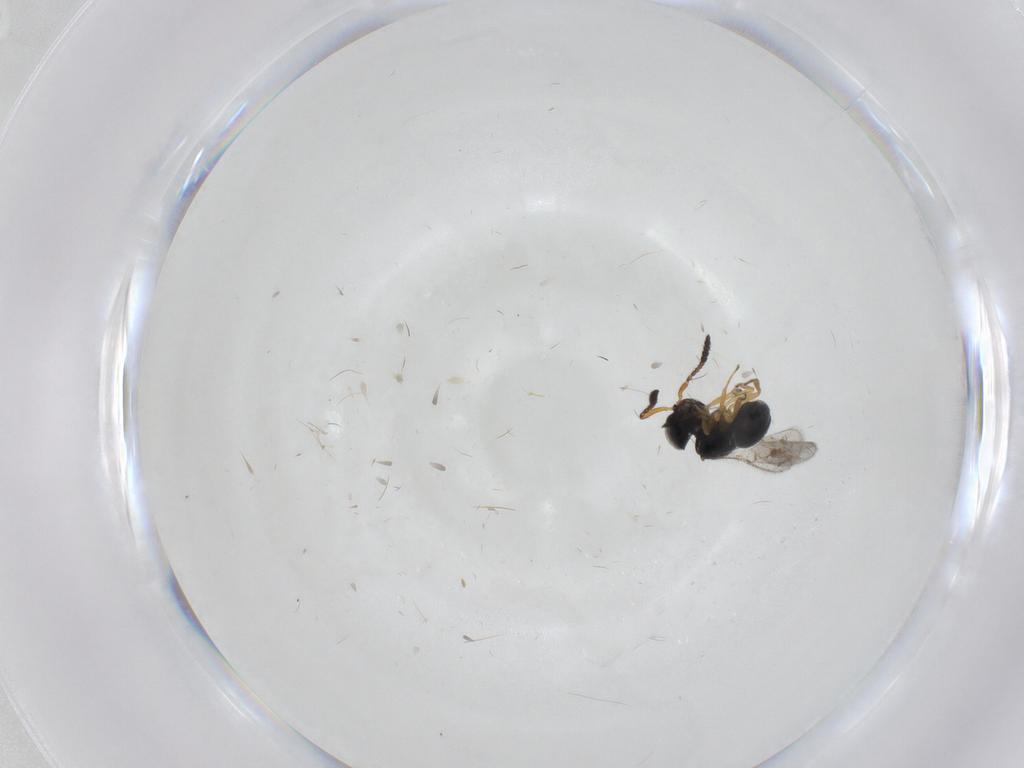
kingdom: Animalia
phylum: Arthropoda
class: Insecta
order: Hymenoptera
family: Scelionidae
